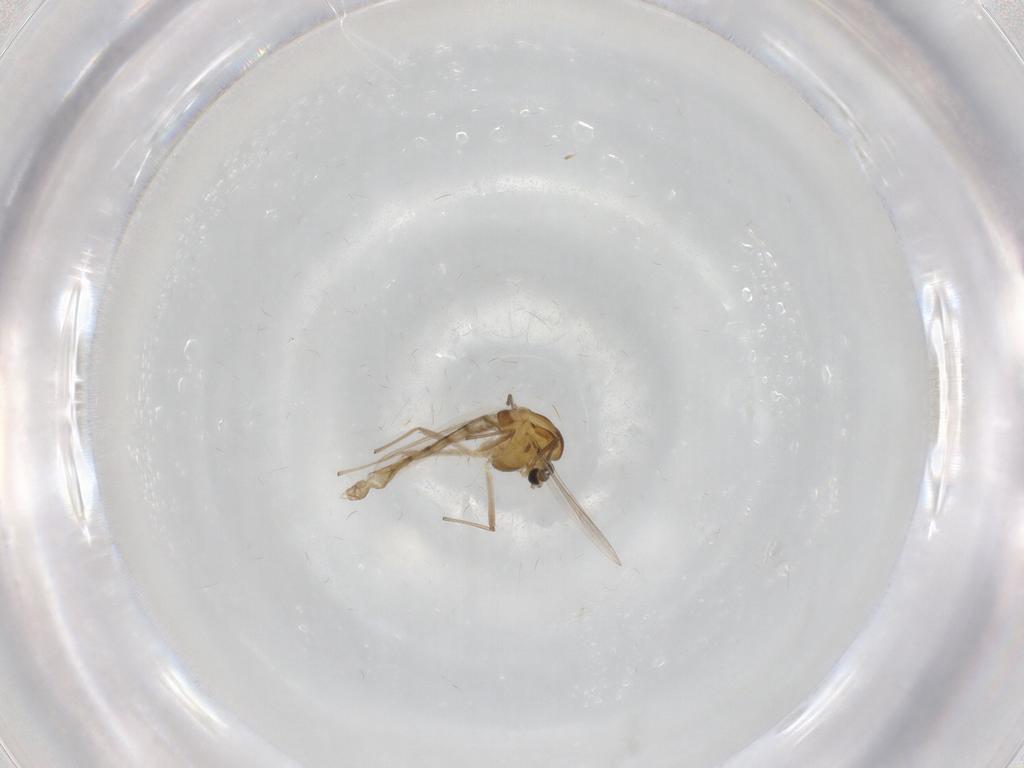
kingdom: Animalia
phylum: Arthropoda
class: Insecta
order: Diptera
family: Chironomidae
